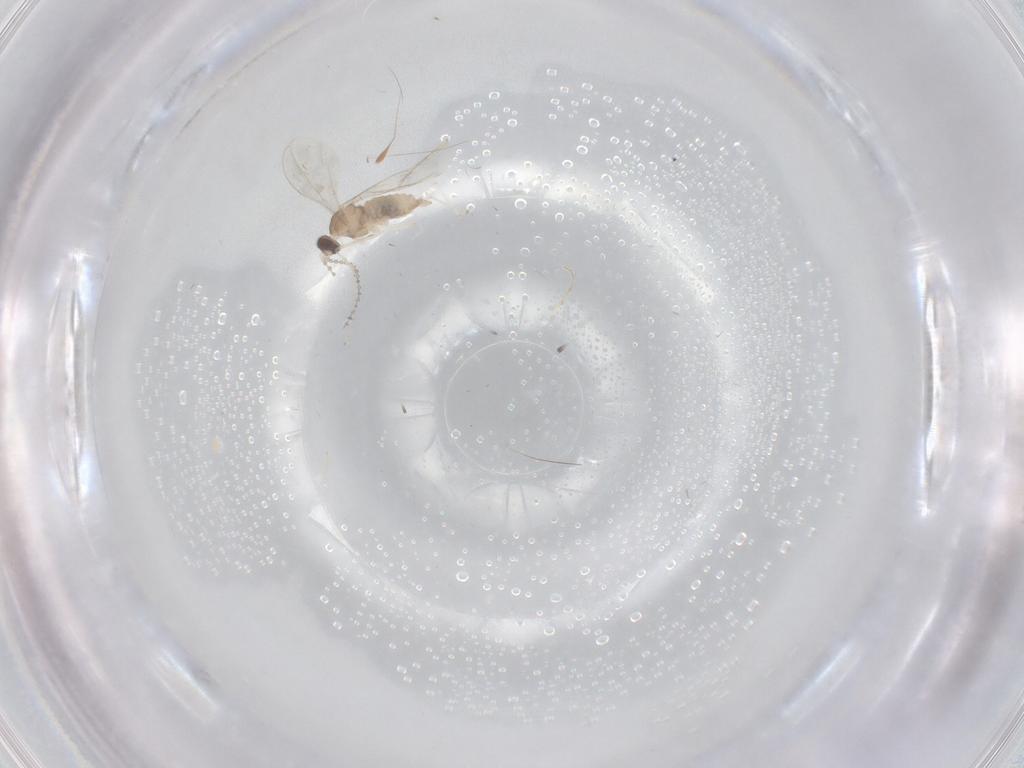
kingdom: Animalia
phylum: Arthropoda
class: Insecta
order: Diptera
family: Cecidomyiidae
